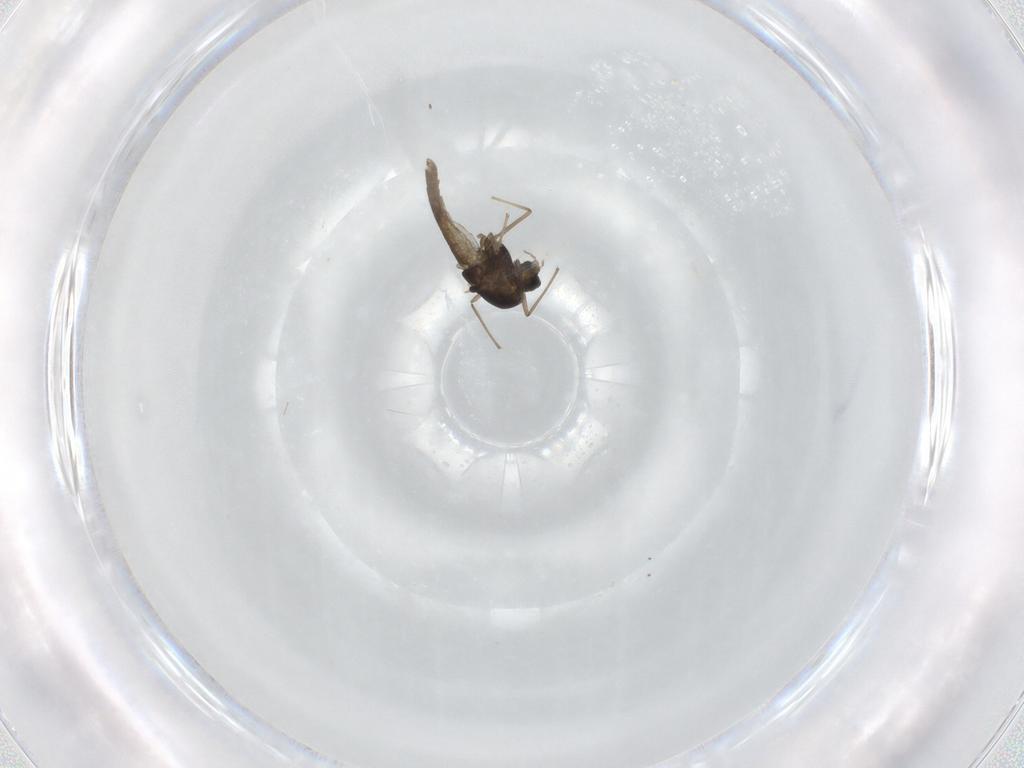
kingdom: Animalia
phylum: Arthropoda
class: Insecta
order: Diptera
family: Chironomidae
